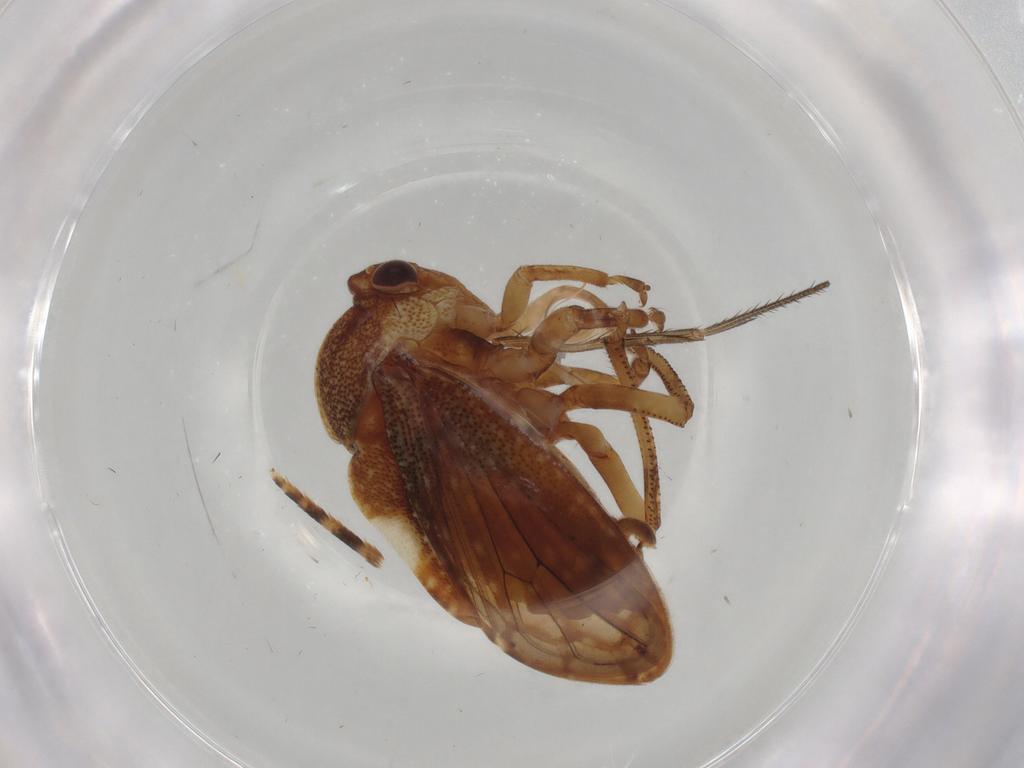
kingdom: Animalia
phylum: Arthropoda
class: Insecta
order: Hemiptera
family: Aetalionidae
